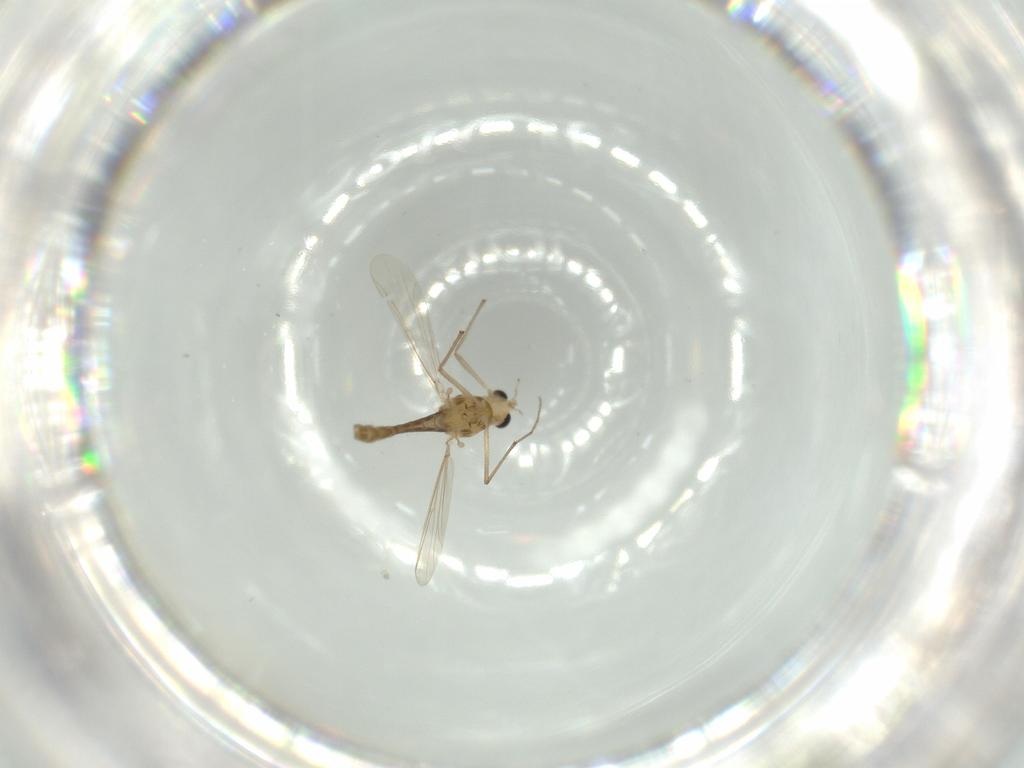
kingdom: Animalia
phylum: Arthropoda
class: Insecta
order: Diptera
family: Chironomidae
